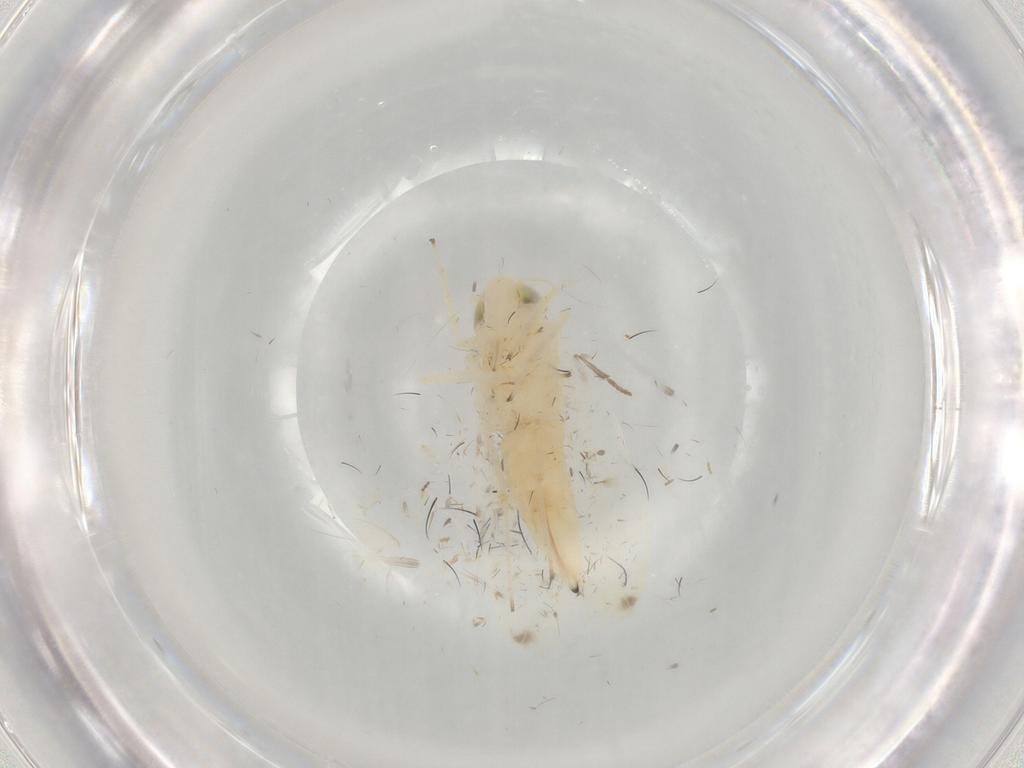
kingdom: Animalia
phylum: Arthropoda
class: Insecta
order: Hemiptera
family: Cicadellidae
